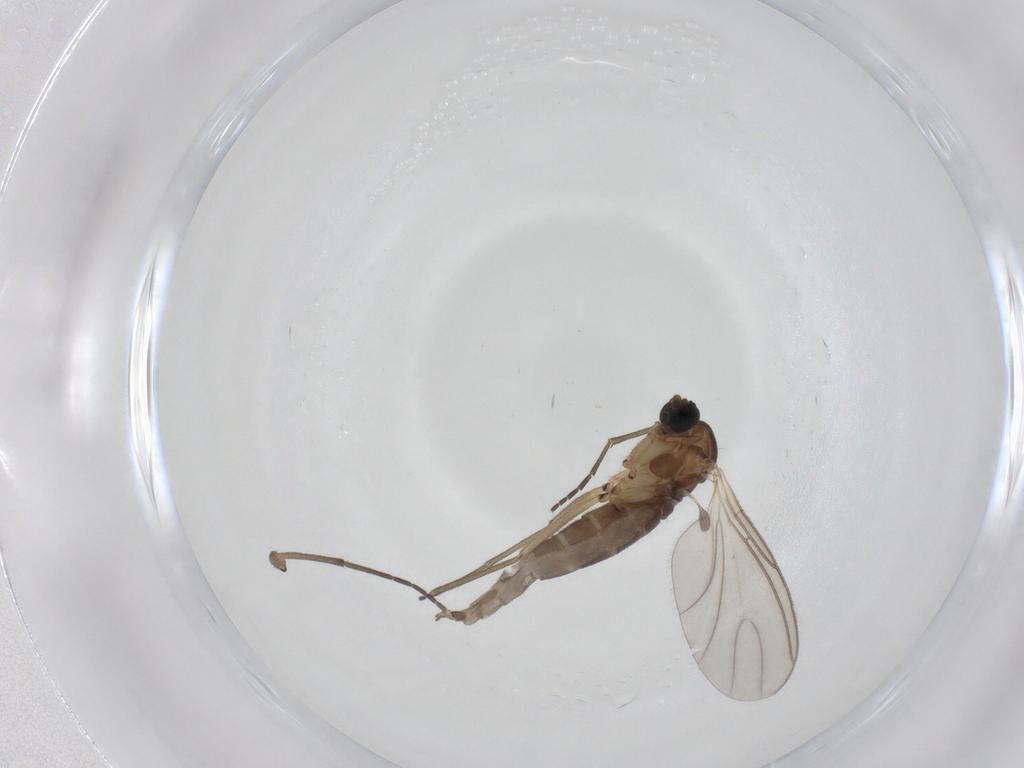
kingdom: Animalia
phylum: Arthropoda
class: Insecta
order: Diptera
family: Sciaridae
